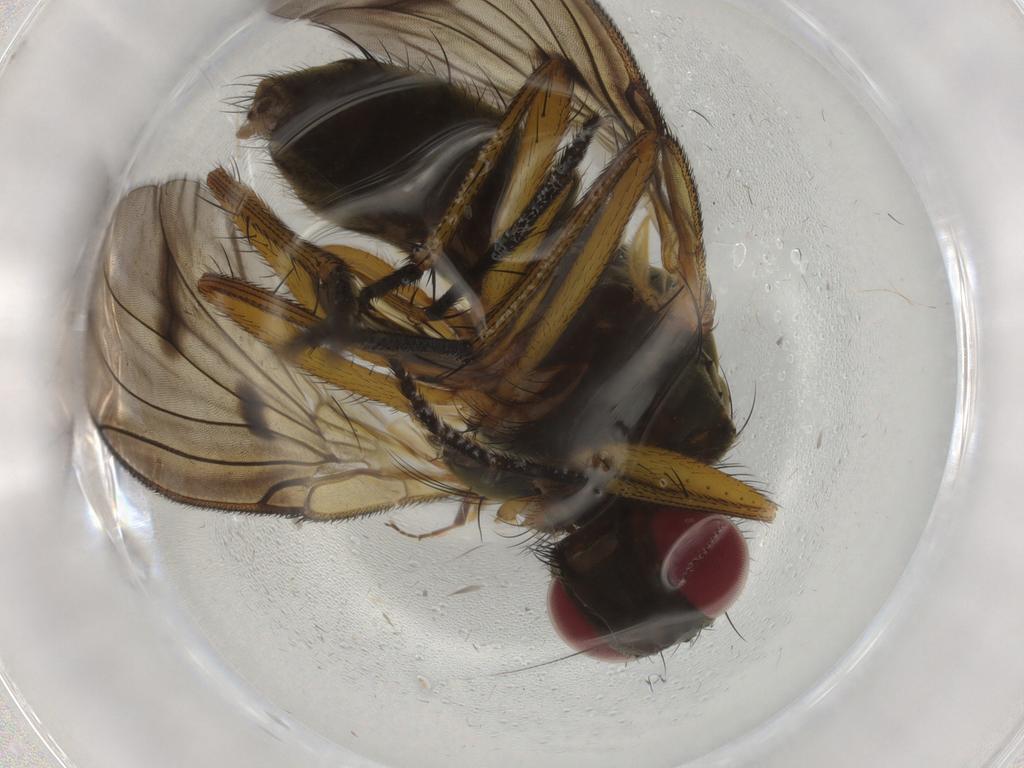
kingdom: Animalia
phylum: Arthropoda
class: Insecta
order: Diptera
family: Muscidae
